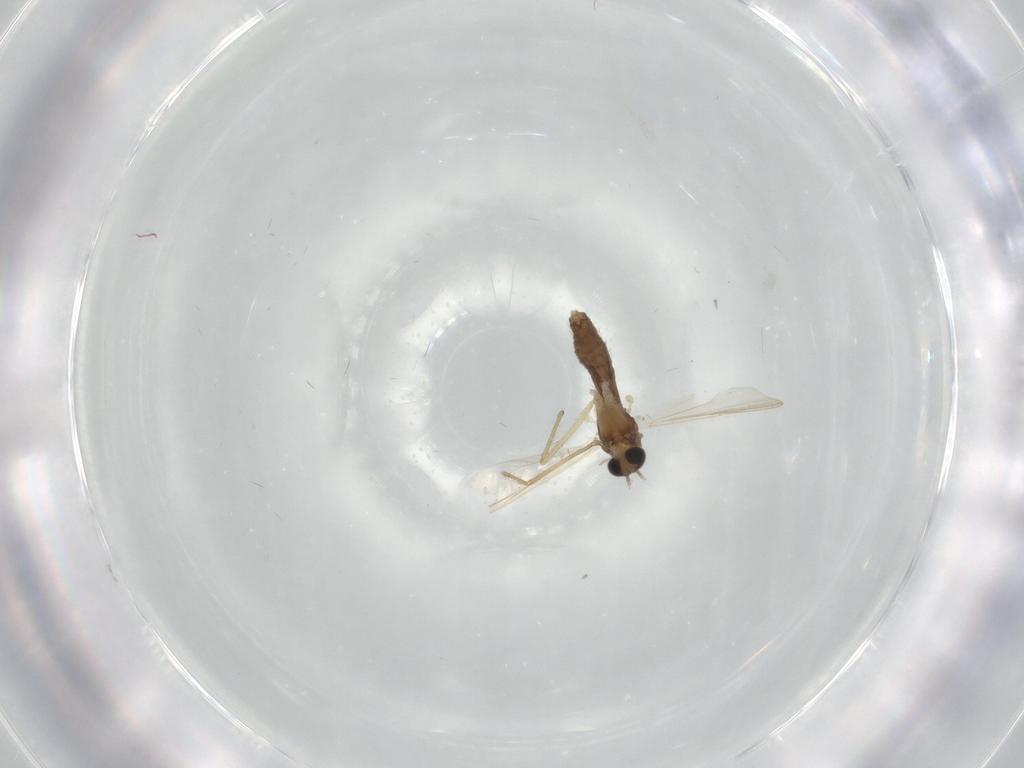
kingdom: Animalia
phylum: Arthropoda
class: Insecta
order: Diptera
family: Chironomidae
